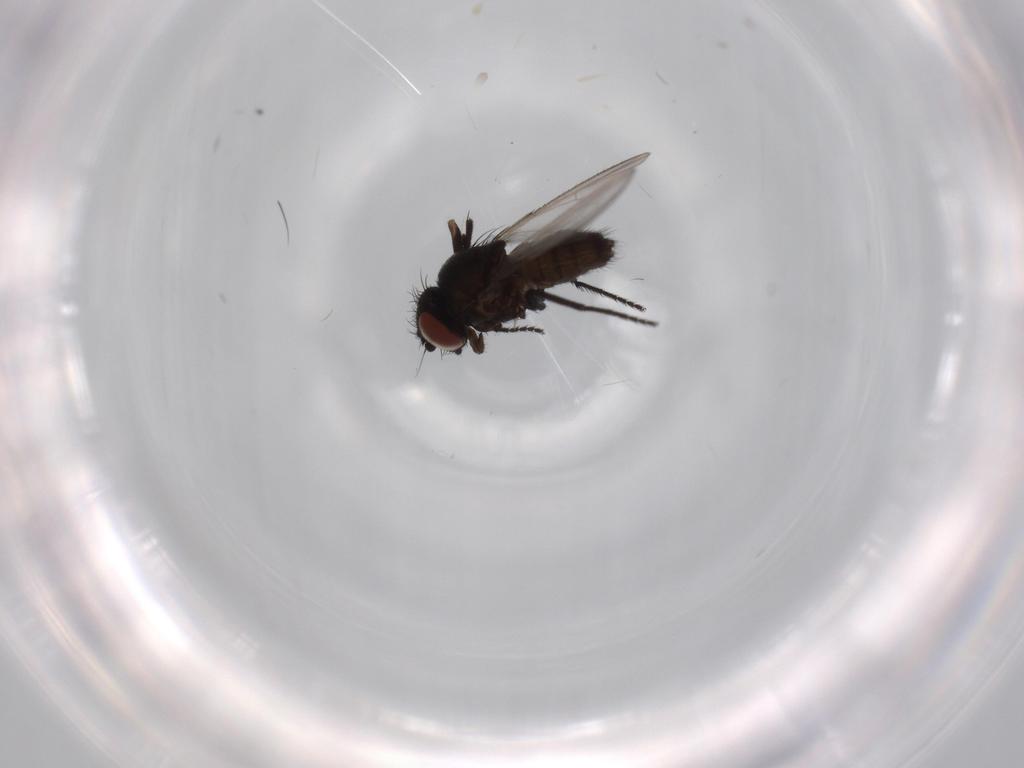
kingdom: Animalia
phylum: Arthropoda
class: Insecta
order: Diptera
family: Milichiidae
